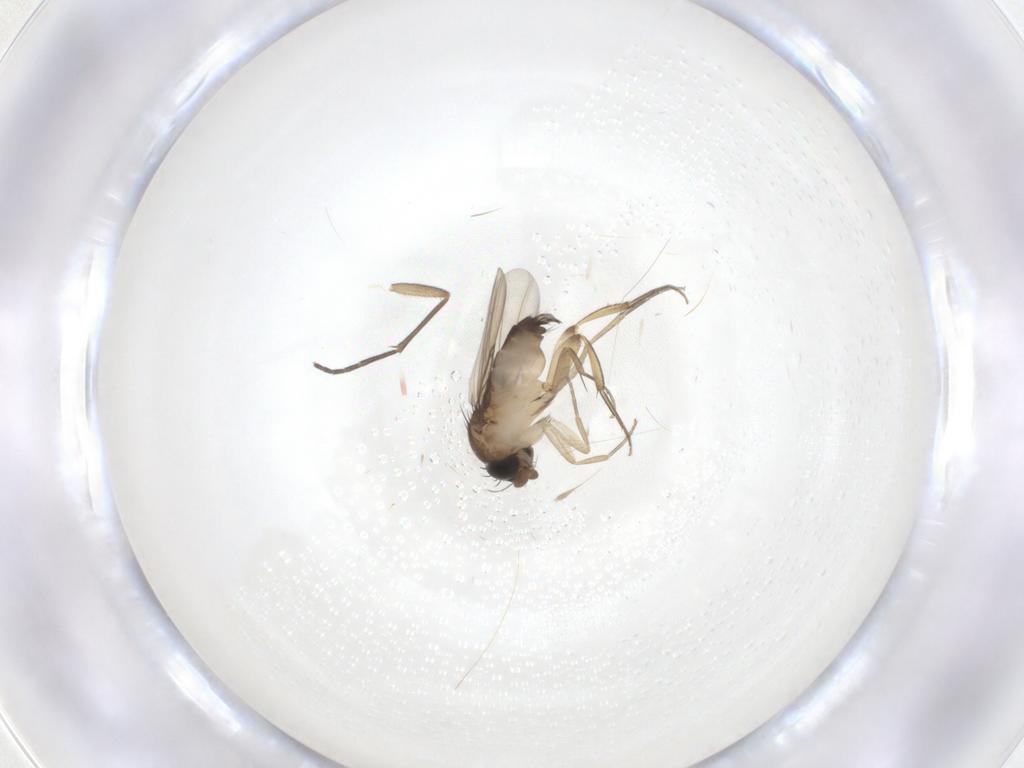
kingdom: Animalia
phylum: Arthropoda
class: Insecta
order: Diptera
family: Phoridae
